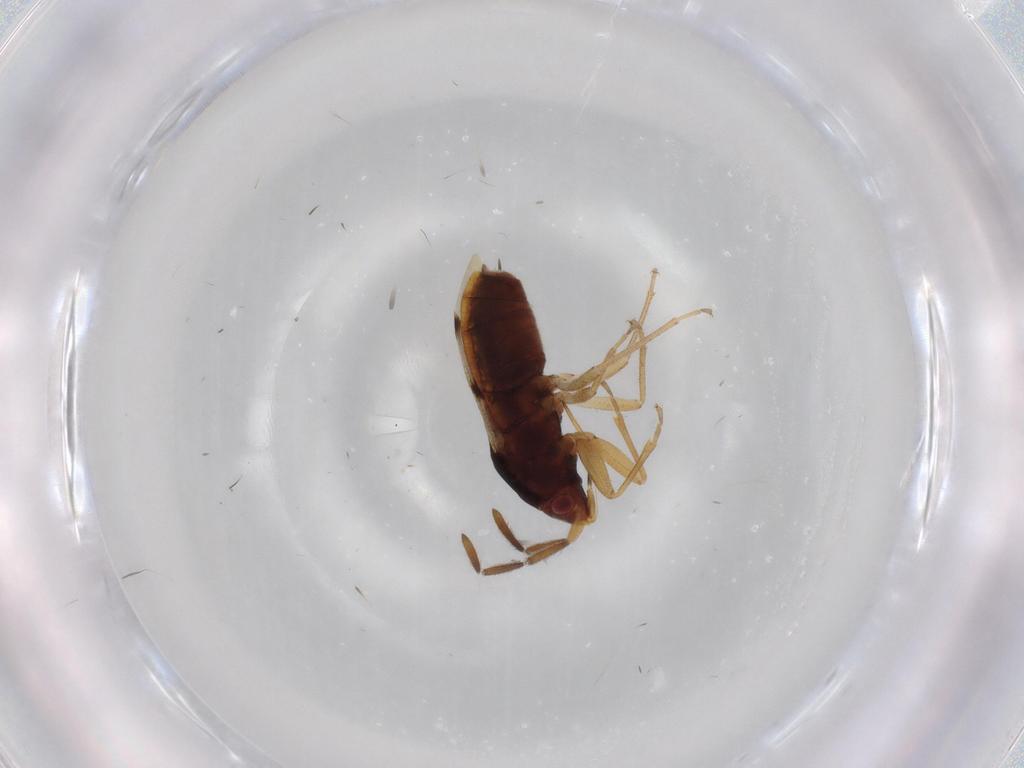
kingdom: Animalia
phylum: Arthropoda
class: Insecta
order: Hemiptera
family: Rhyparochromidae
